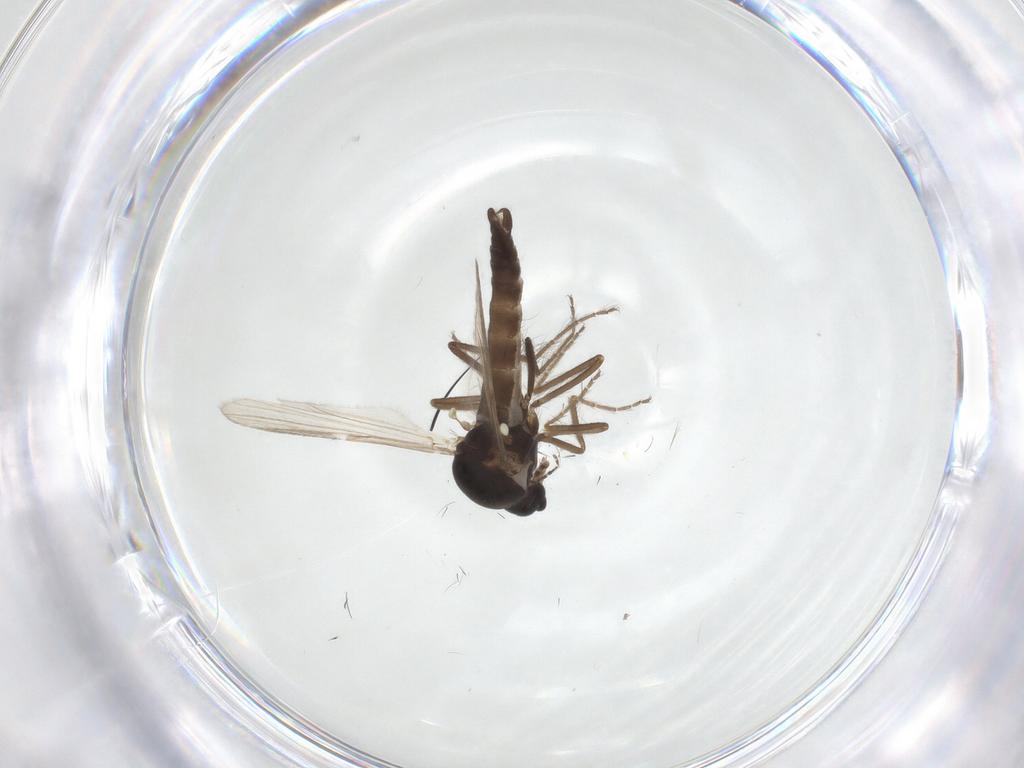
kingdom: Animalia
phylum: Arthropoda
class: Insecta
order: Diptera
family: Ceratopogonidae
